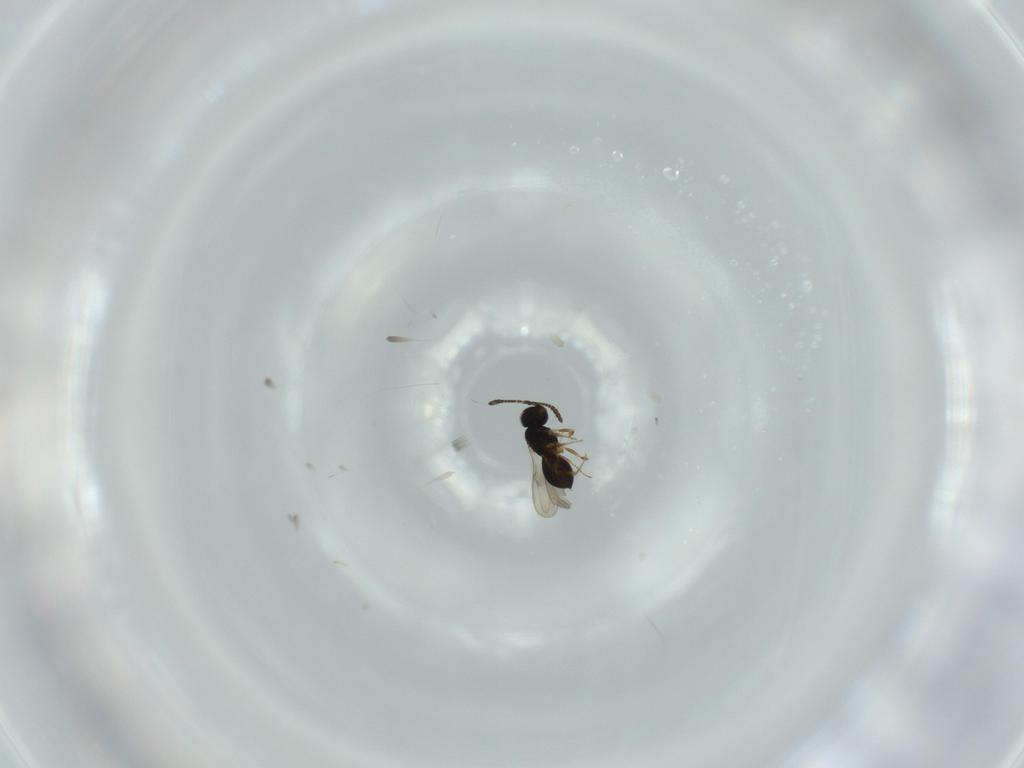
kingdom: Animalia
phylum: Arthropoda
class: Insecta
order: Hymenoptera
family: Scelionidae
